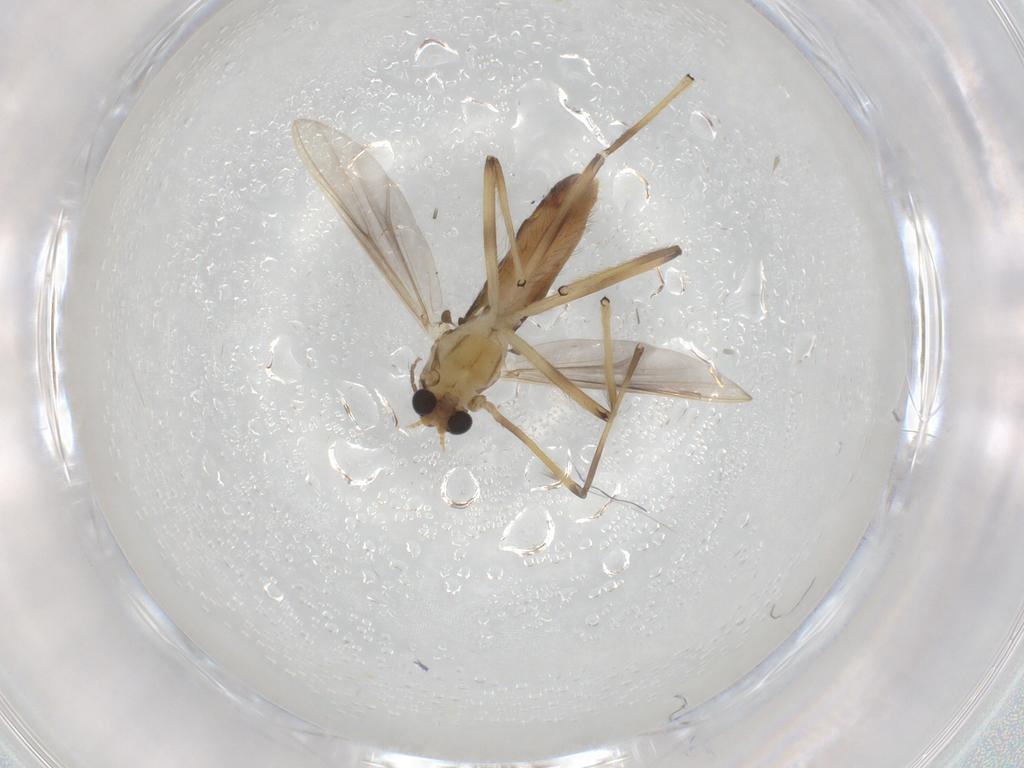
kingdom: Animalia
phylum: Arthropoda
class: Insecta
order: Diptera
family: Chironomidae
